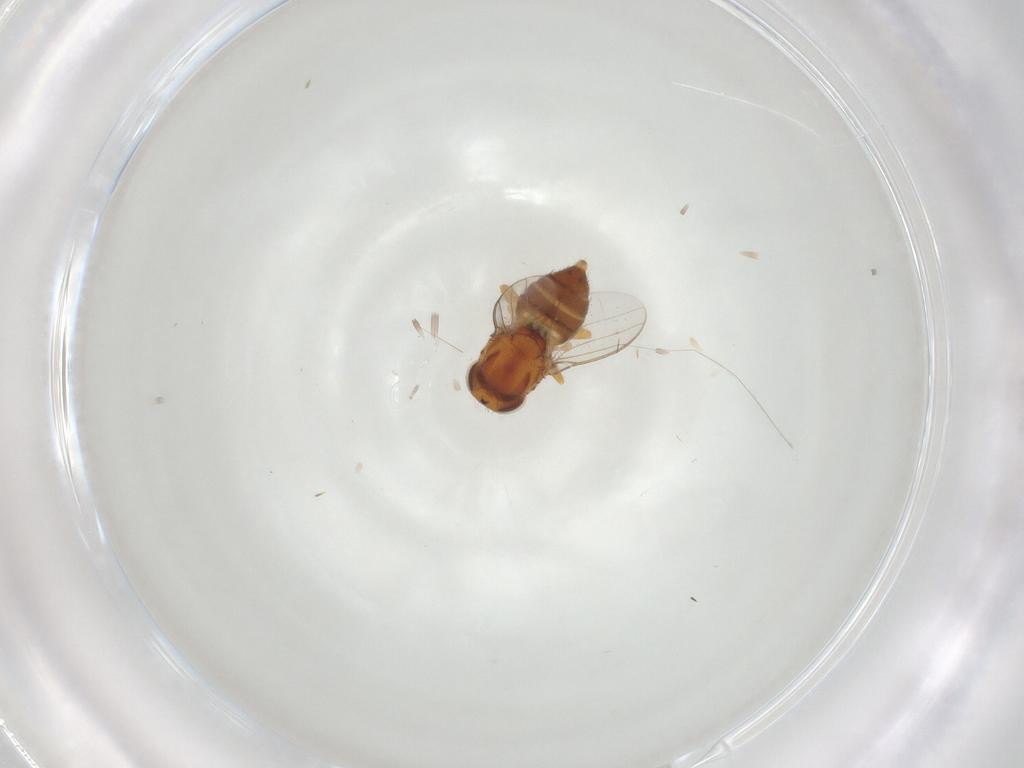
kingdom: Animalia
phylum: Arthropoda
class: Insecta
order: Diptera
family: Chloropidae
